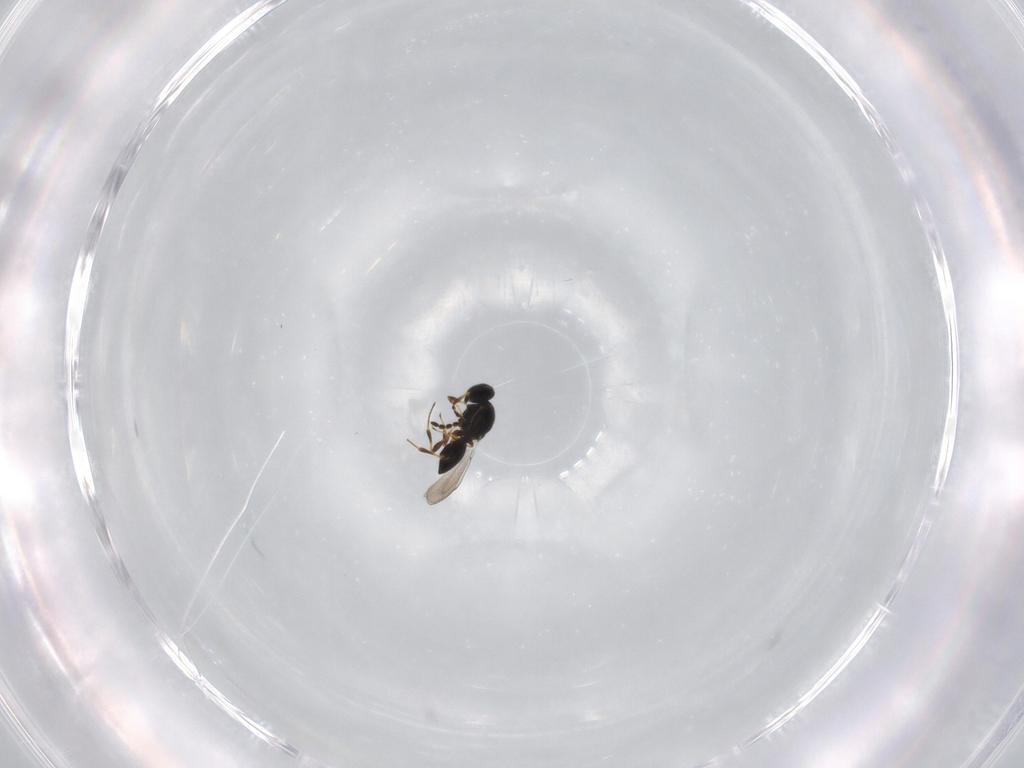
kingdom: Animalia
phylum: Arthropoda
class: Insecta
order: Hymenoptera
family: Platygastridae
